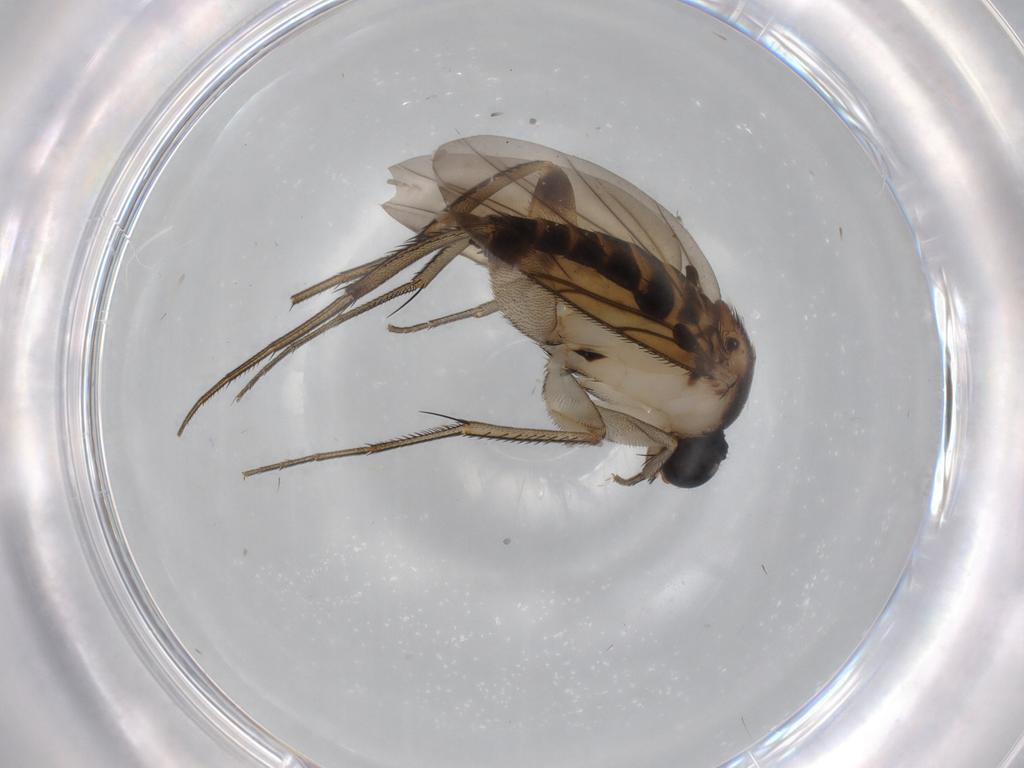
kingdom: Animalia
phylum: Arthropoda
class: Insecta
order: Diptera
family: Phoridae
